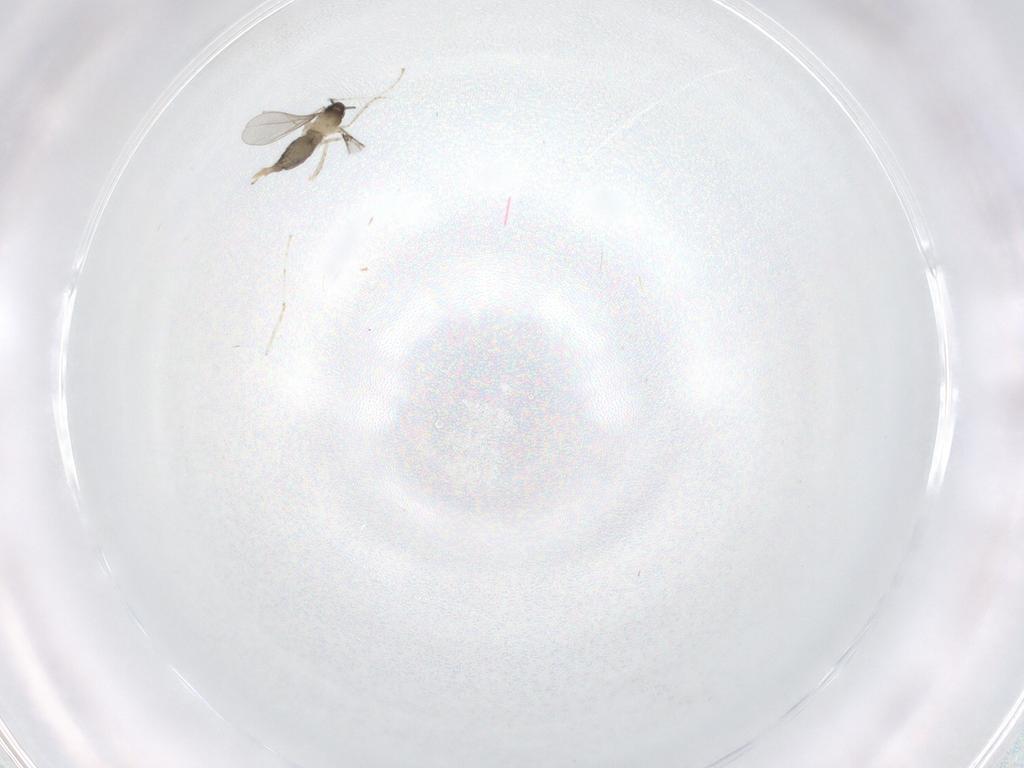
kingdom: Animalia
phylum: Arthropoda
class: Insecta
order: Diptera
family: Cecidomyiidae
